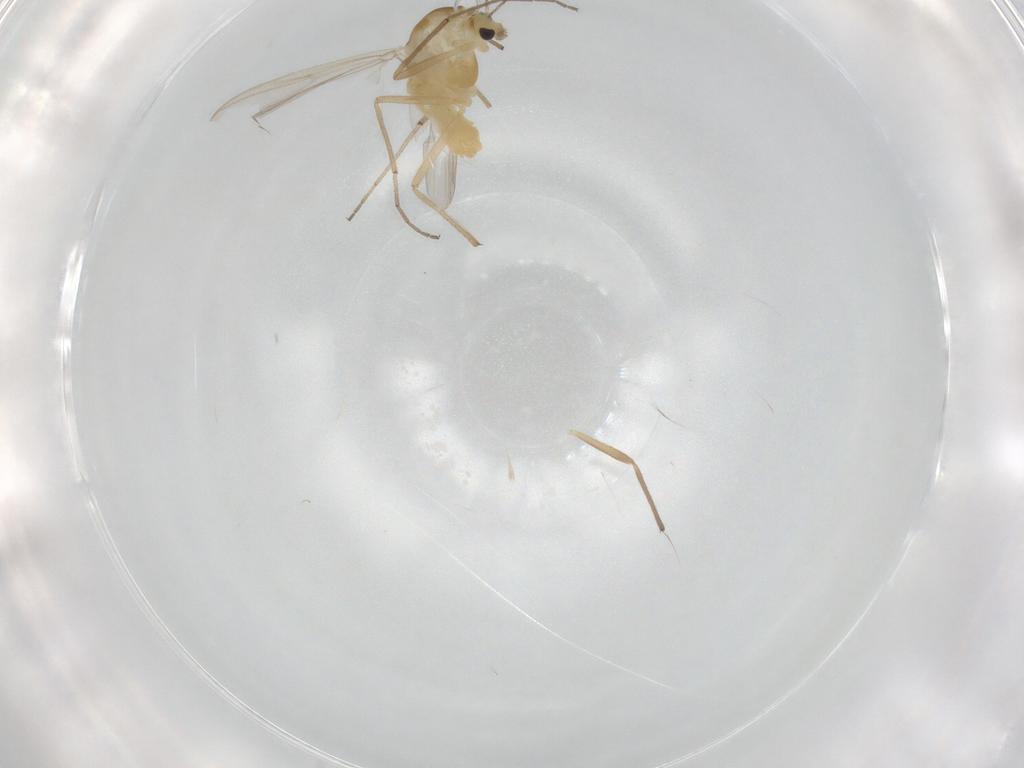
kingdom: Animalia
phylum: Arthropoda
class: Insecta
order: Diptera
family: Chironomidae
